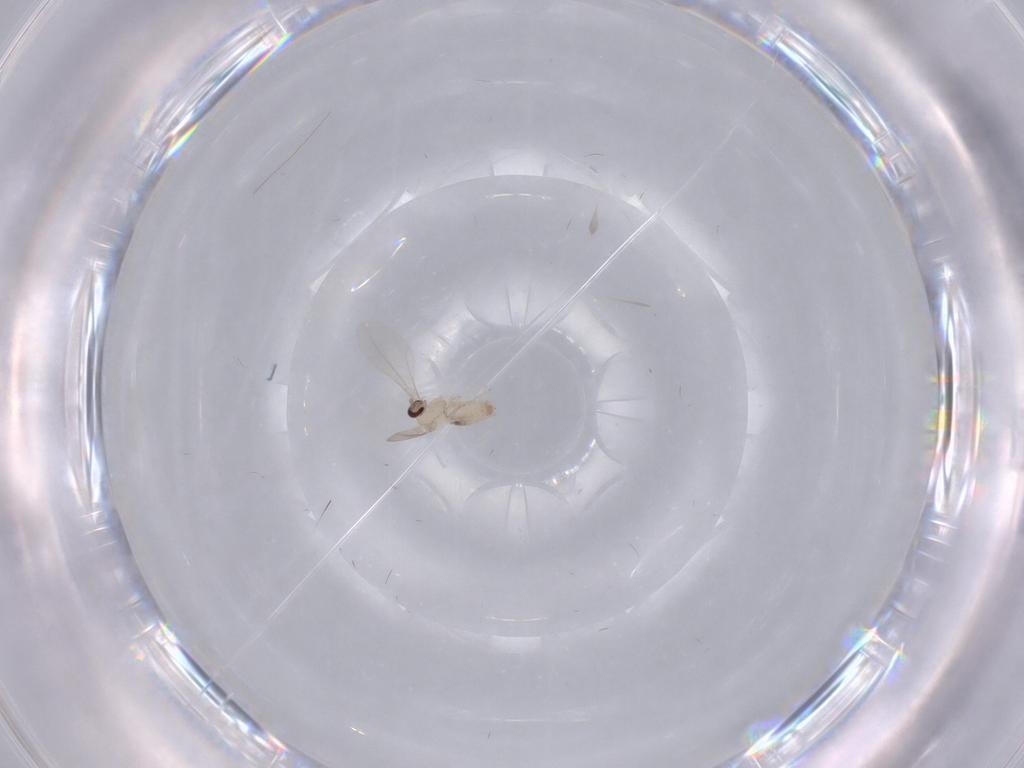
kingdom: Animalia
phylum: Arthropoda
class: Insecta
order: Diptera
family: Cecidomyiidae
